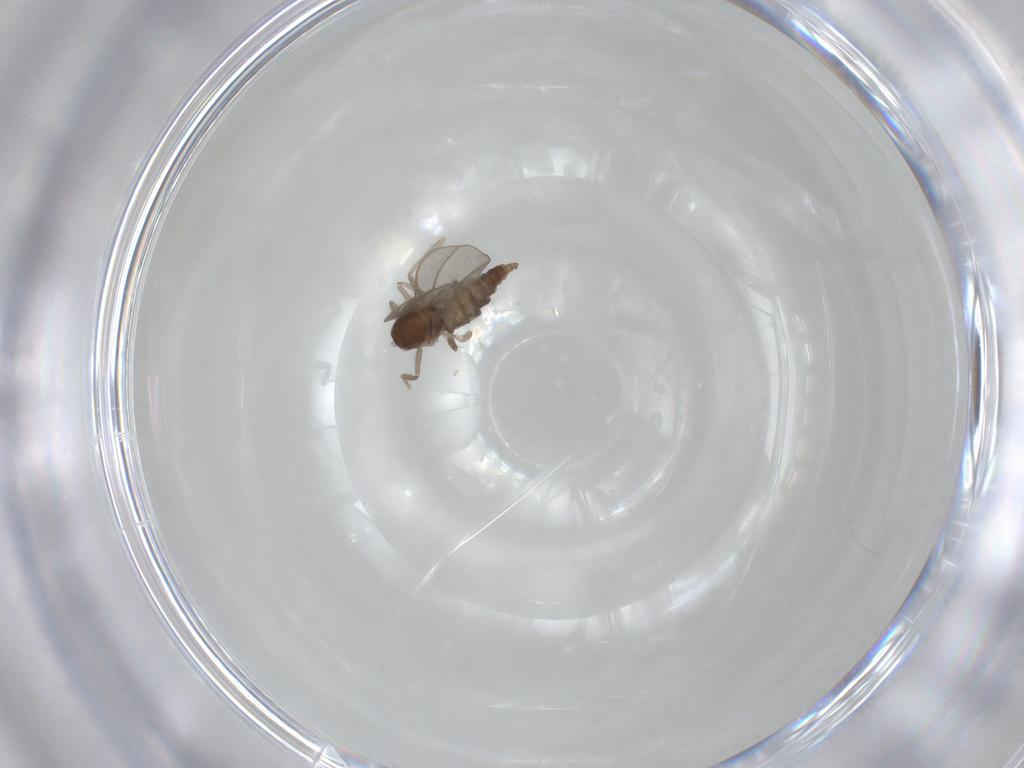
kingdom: Animalia
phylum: Arthropoda
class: Insecta
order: Diptera
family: Cecidomyiidae
